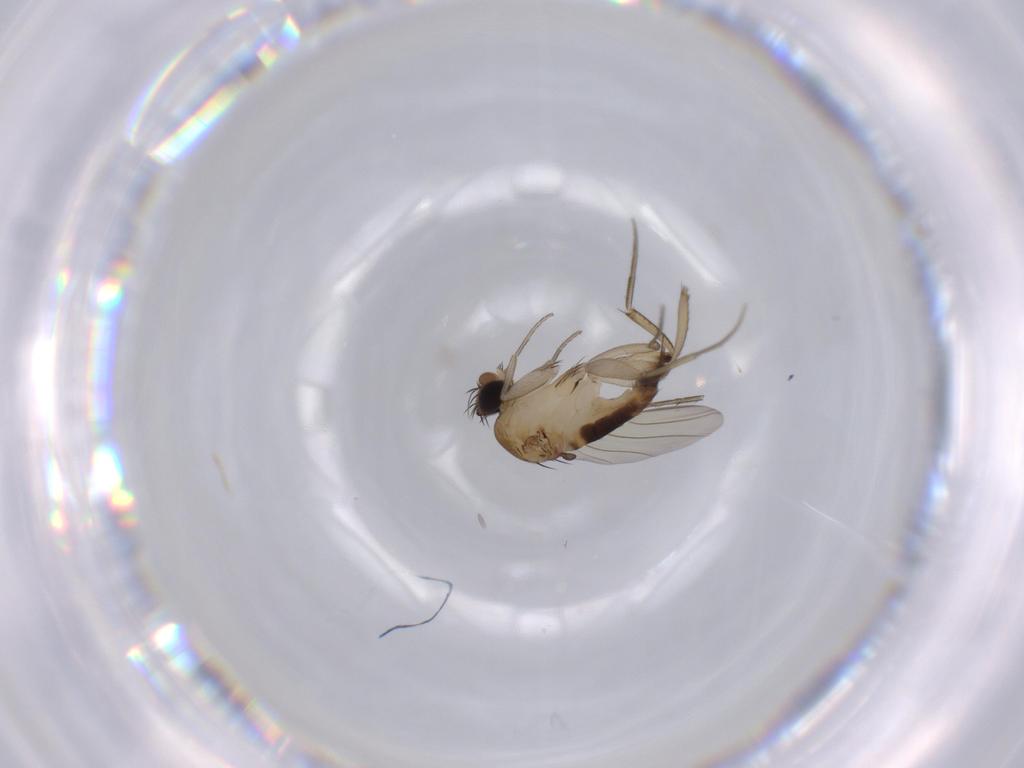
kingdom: Animalia
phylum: Arthropoda
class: Insecta
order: Diptera
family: Phoridae
